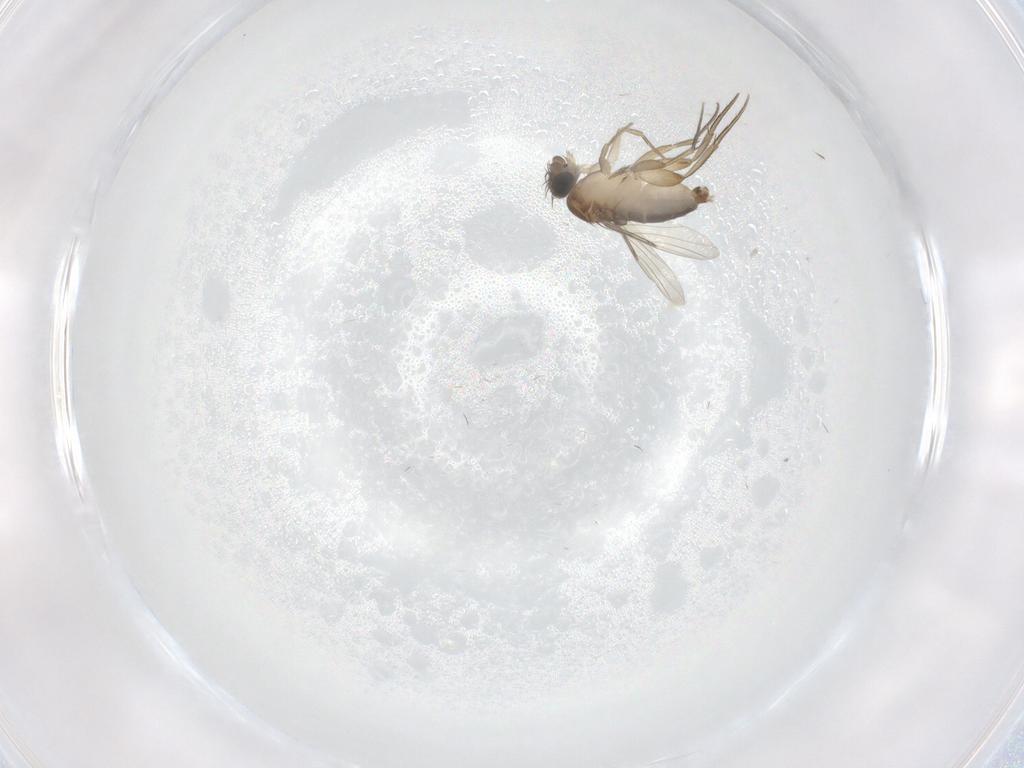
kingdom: Animalia
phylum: Arthropoda
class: Insecta
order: Diptera
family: Phoridae
